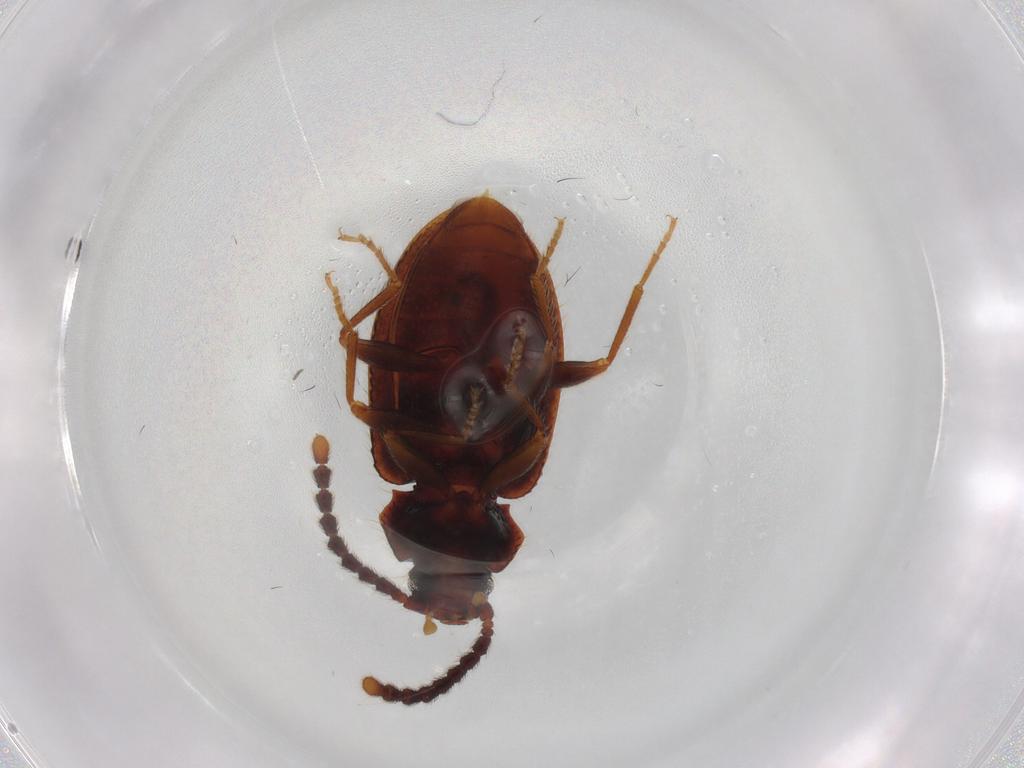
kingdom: Animalia
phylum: Arthropoda
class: Insecta
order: Coleoptera
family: Tenebrionidae
